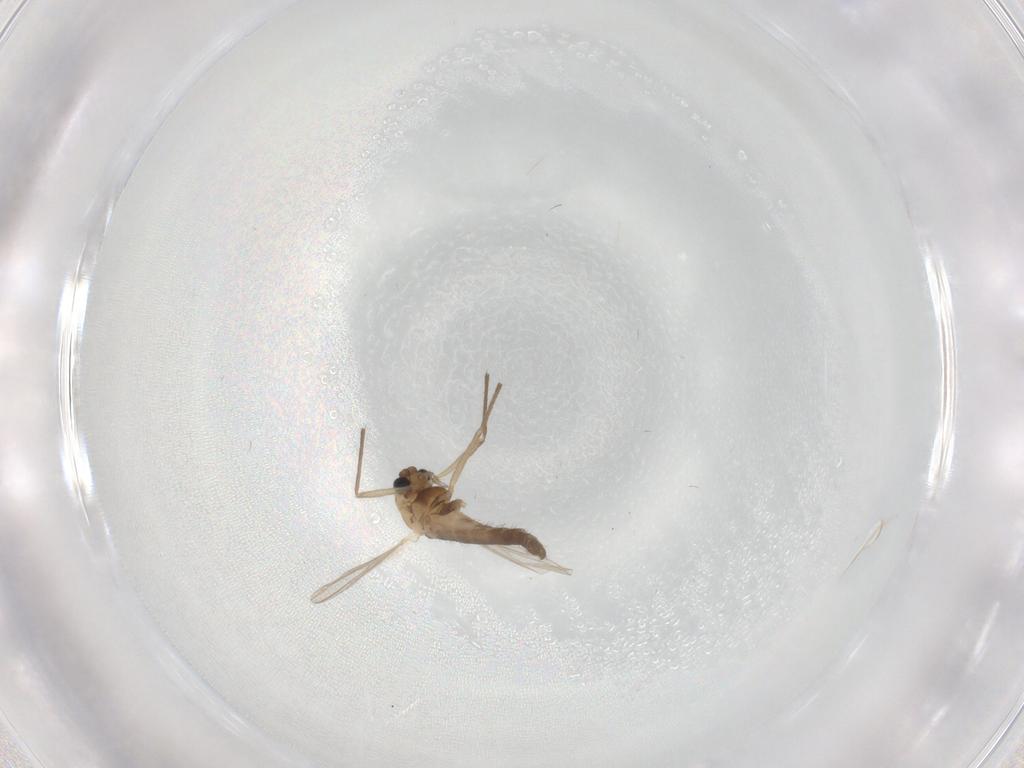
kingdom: Animalia
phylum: Arthropoda
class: Insecta
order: Diptera
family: Chironomidae
